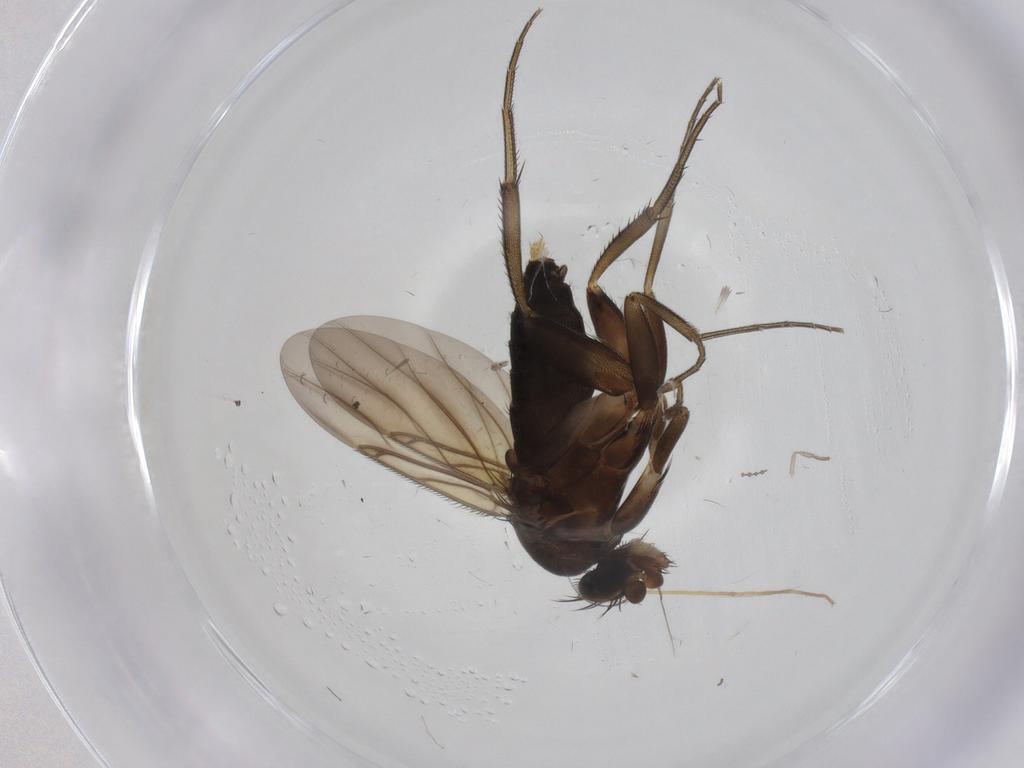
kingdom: Animalia
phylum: Arthropoda
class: Insecta
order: Diptera
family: Phoridae
